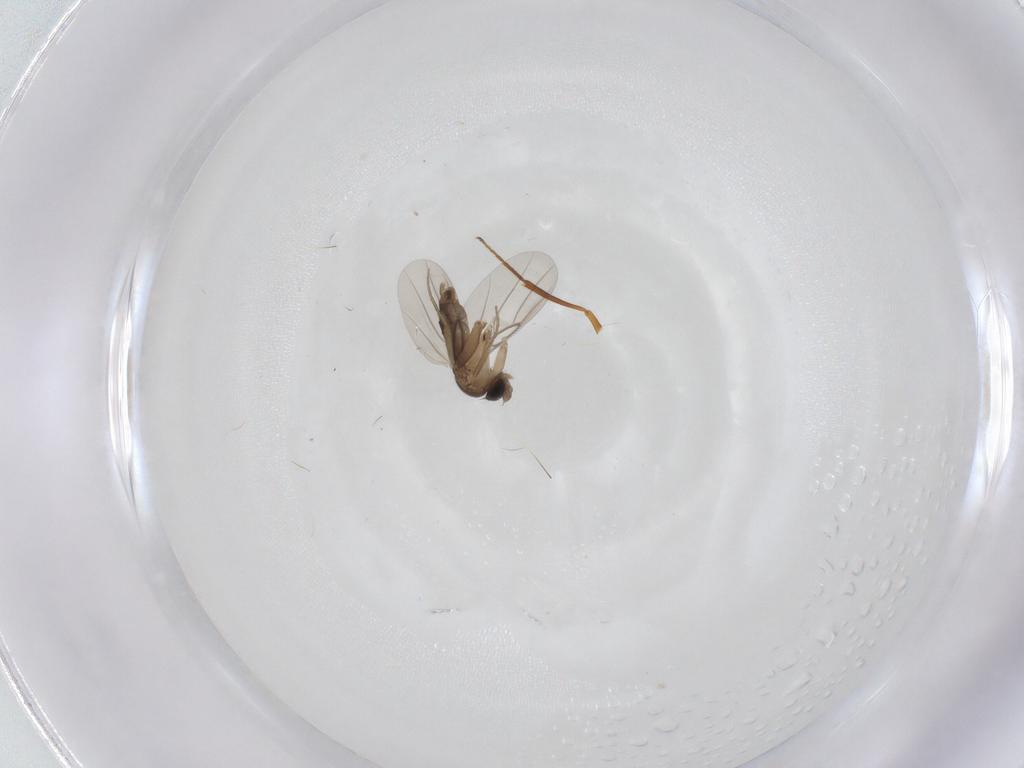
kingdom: Animalia
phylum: Arthropoda
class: Insecta
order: Diptera
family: Phoridae
